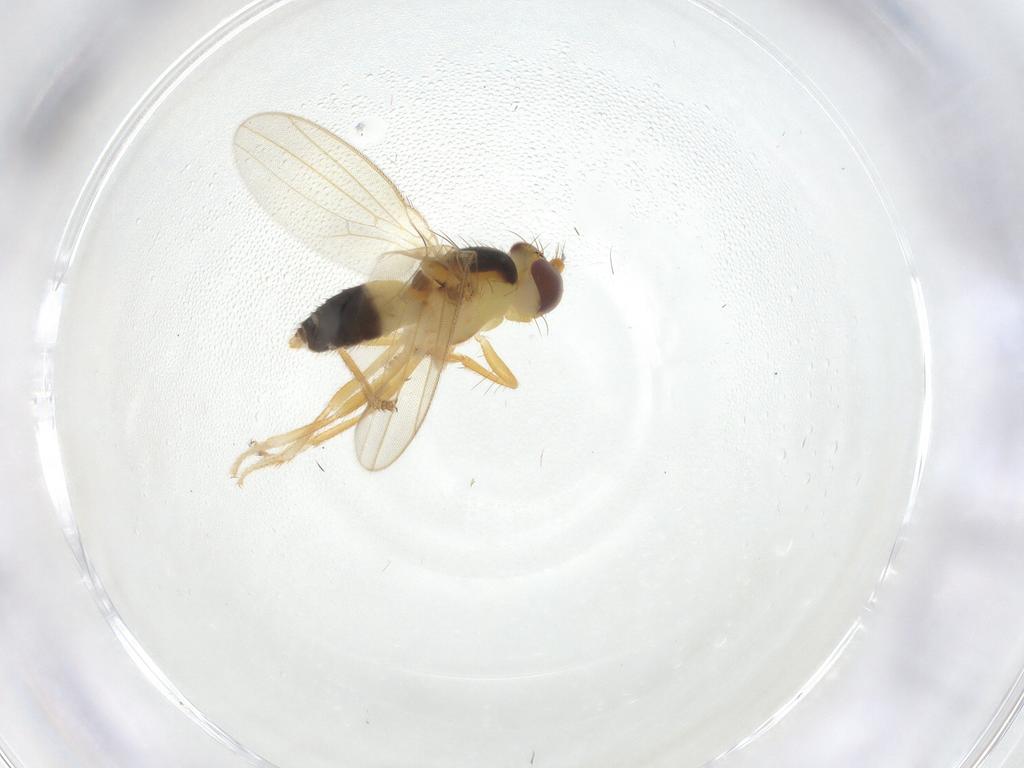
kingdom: Animalia
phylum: Arthropoda
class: Insecta
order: Diptera
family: Periscelididae
